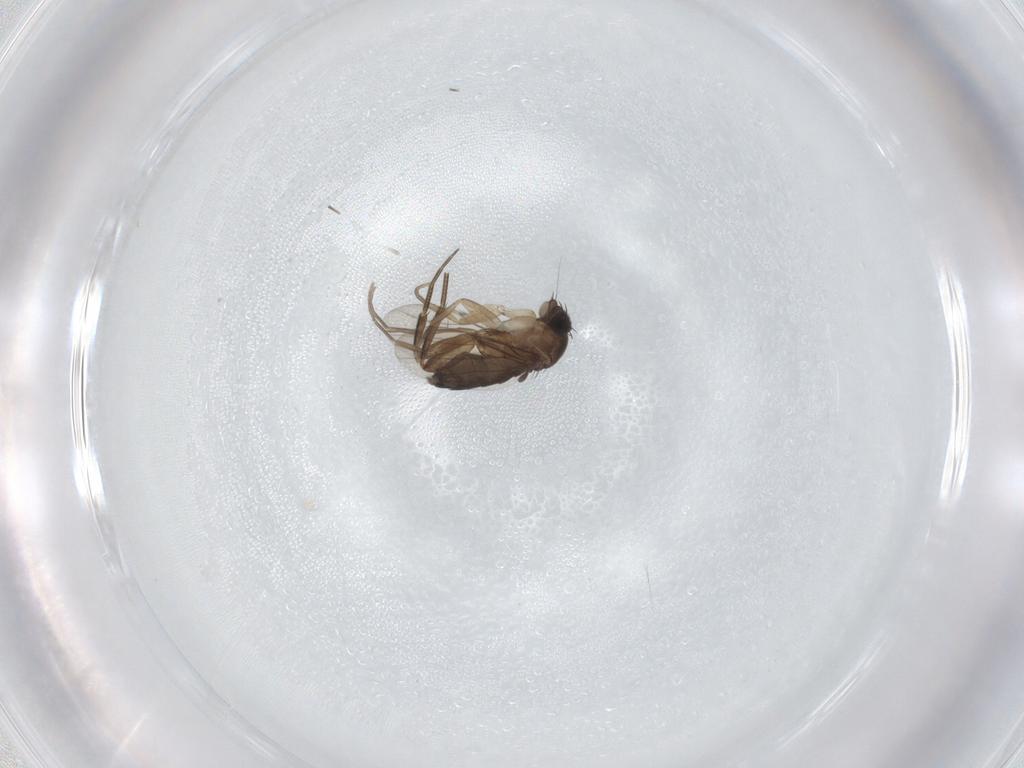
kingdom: Animalia
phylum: Arthropoda
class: Insecta
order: Diptera
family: Phoridae
